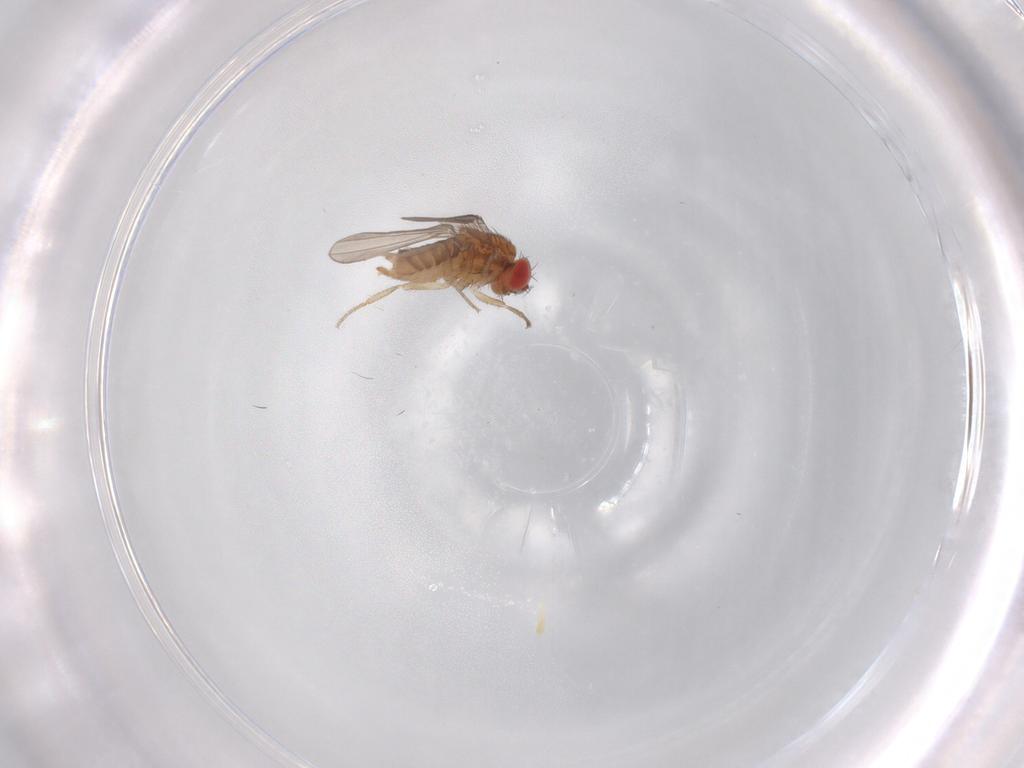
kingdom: Animalia
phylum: Arthropoda
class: Insecta
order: Diptera
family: Drosophilidae
